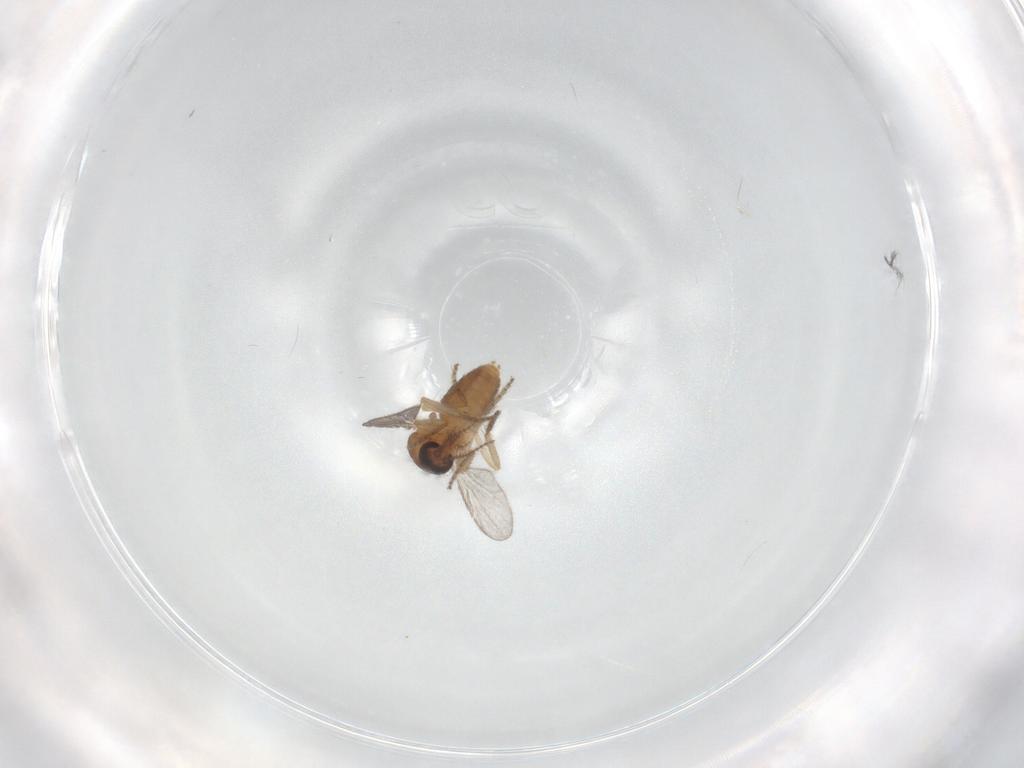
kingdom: Animalia
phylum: Arthropoda
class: Insecta
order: Diptera
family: Ceratopogonidae
